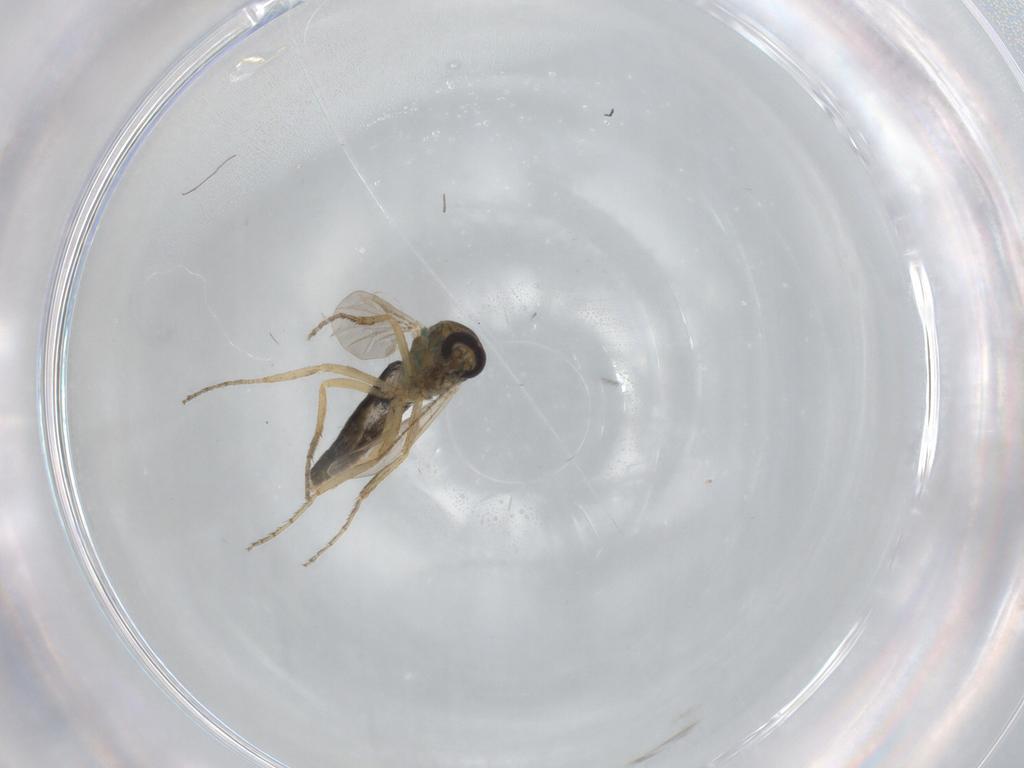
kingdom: Animalia
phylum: Arthropoda
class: Insecta
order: Diptera
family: Ceratopogonidae
